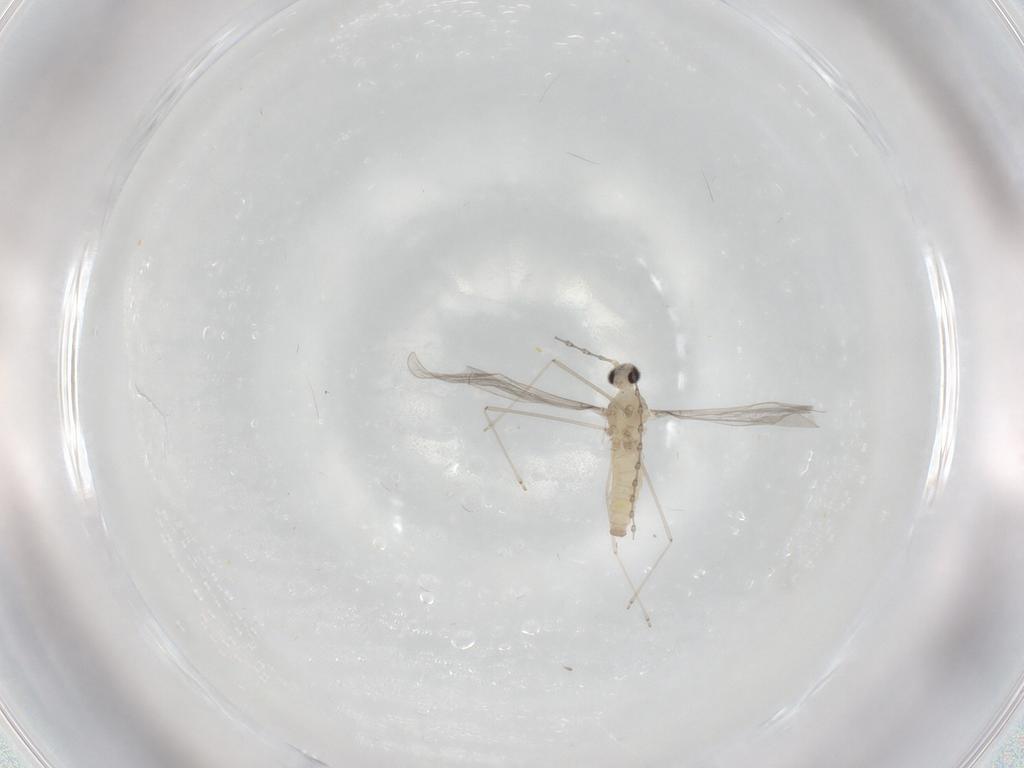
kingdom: Animalia
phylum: Arthropoda
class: Insecta
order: Diptera
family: Cecidomyiidae
